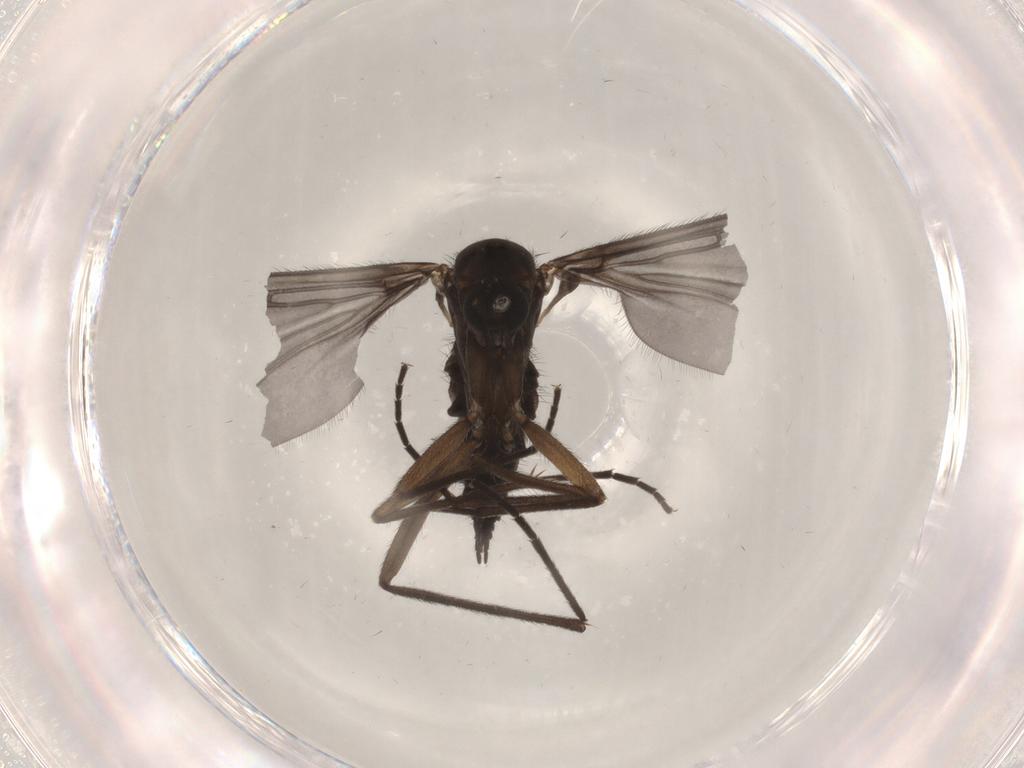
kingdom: Animalia
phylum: Arthropoda
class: Insecta
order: Diptera
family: Sciaridae
